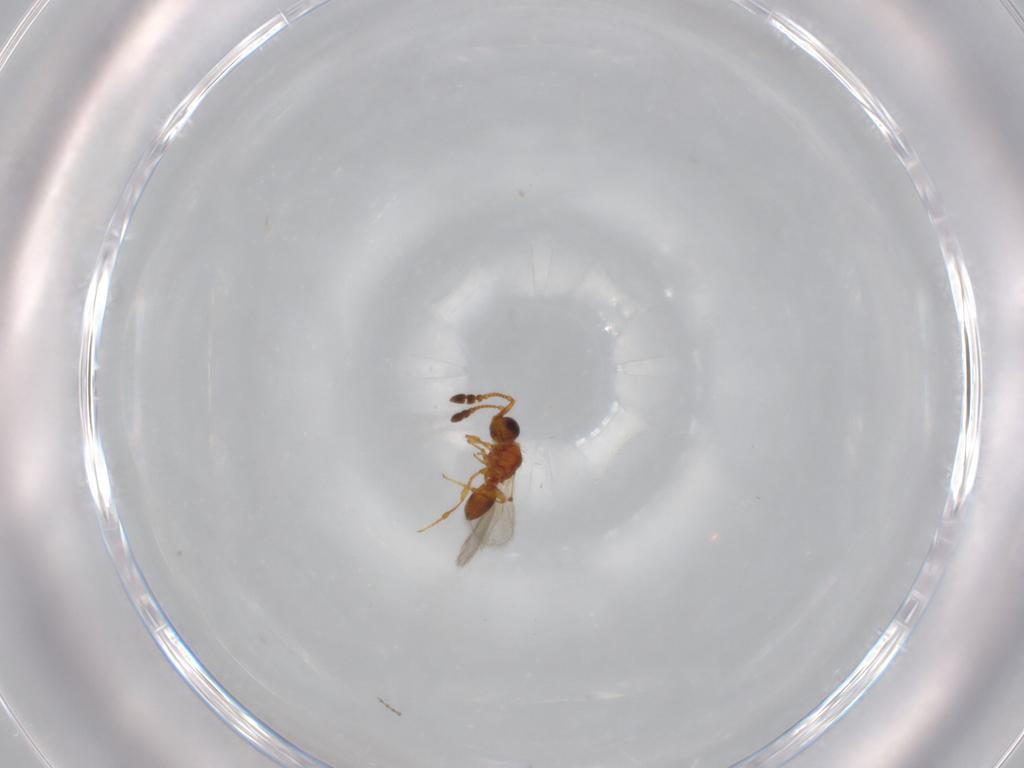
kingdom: Animalia
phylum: Arthropoda
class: Insecta
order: Hymenoptera
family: Diapriidae
